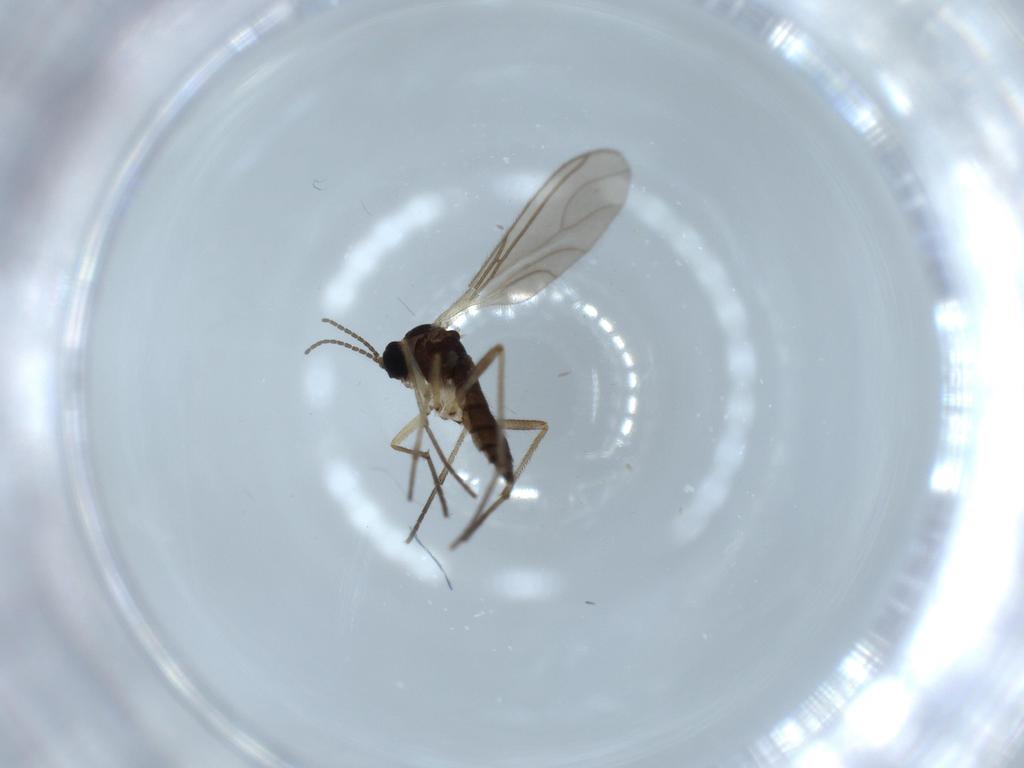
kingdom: Animalia
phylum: Arthropoda
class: Insecta
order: Diptera
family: Sciaridae
